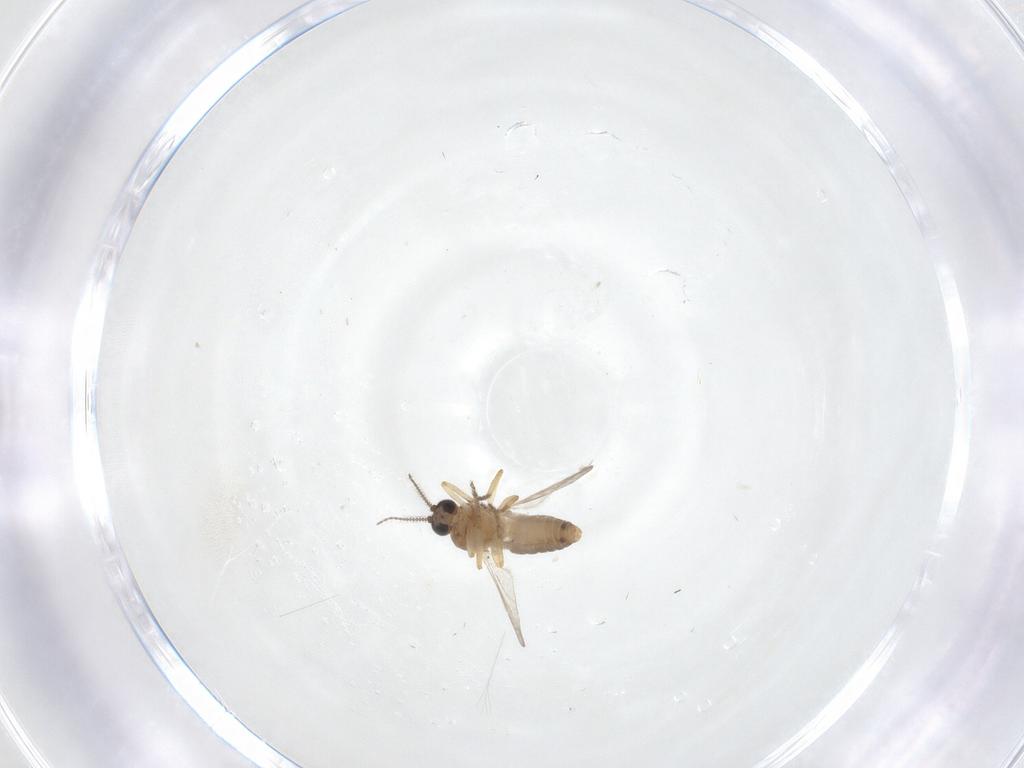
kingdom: Animalia
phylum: Arthropoda
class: Insecta
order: Diptera
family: Ceratopogonidae
